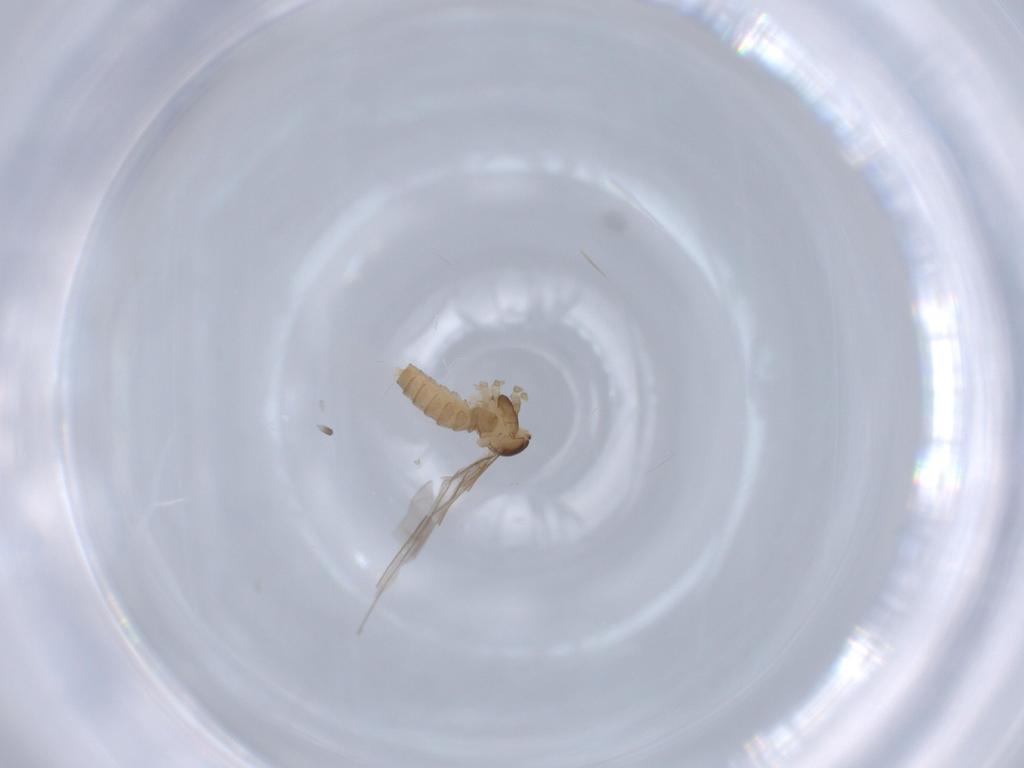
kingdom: Animalia
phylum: Arthropoda
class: Insecta
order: Diptera
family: Cecidomyiidae
